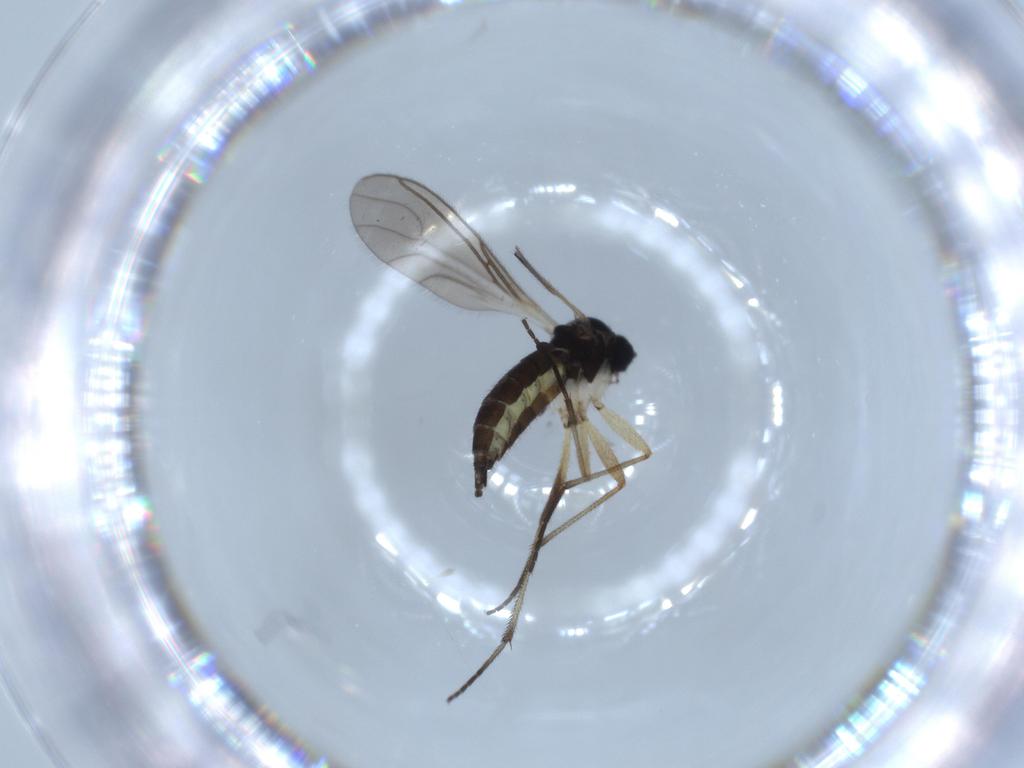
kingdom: Animalia
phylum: Arthropoda
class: Insecta
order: Diptera
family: Sciaridae
